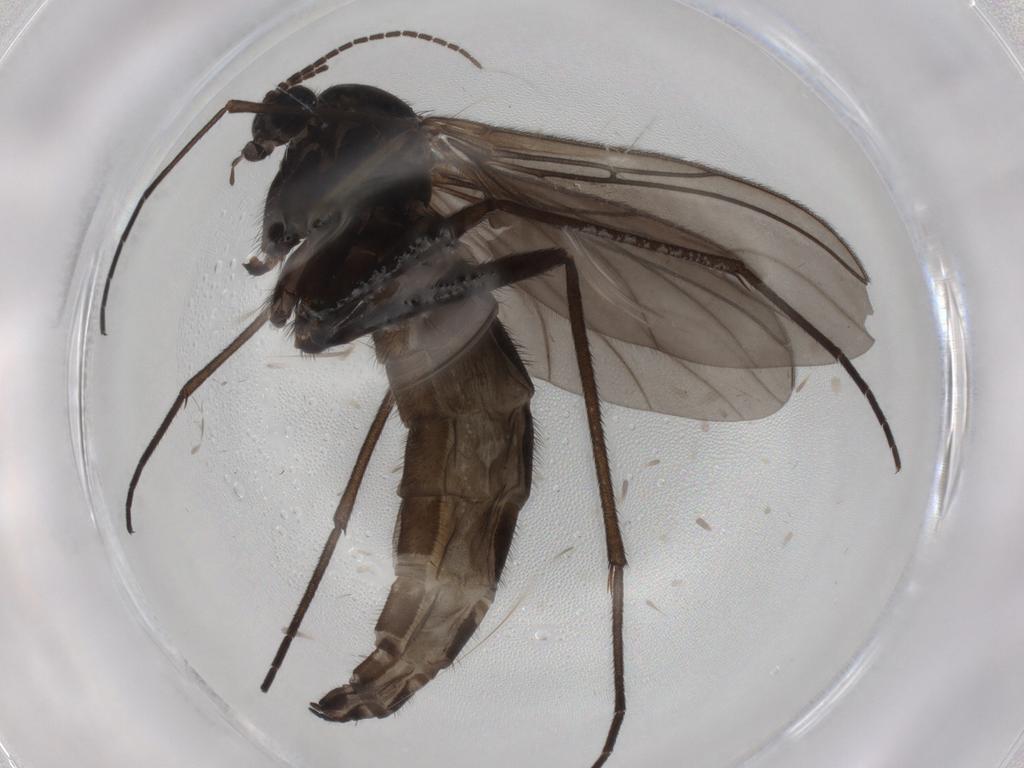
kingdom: Animalia
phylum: Arthropoda
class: Insecta
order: Diptera
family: Sciaridae
